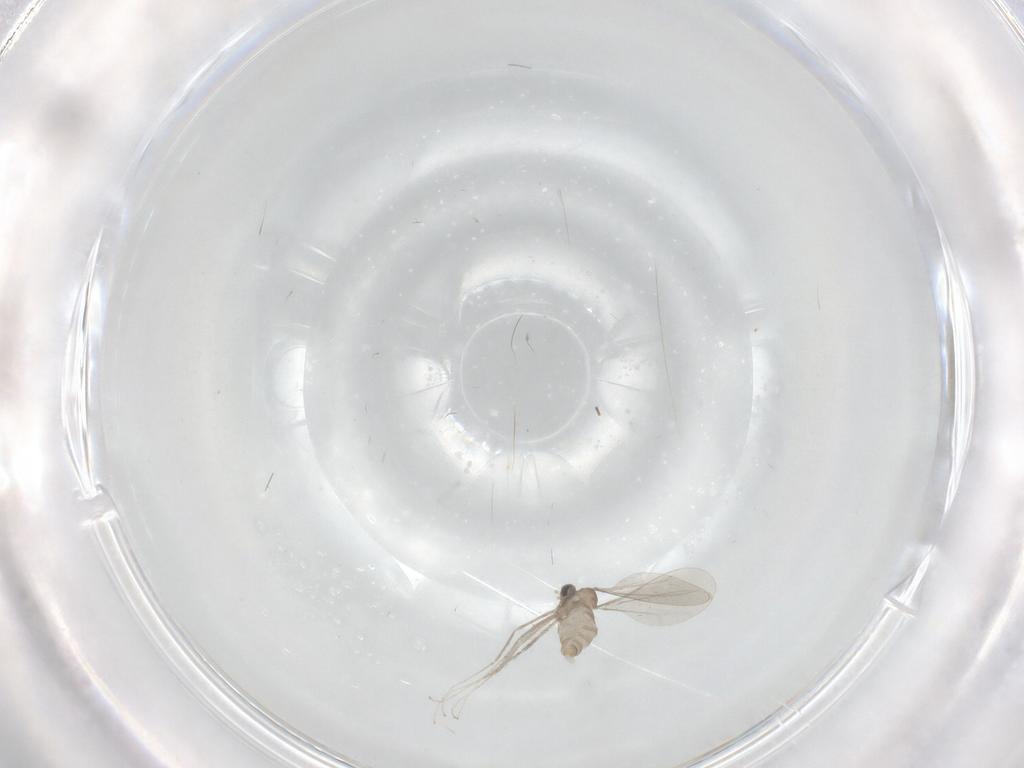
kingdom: Animalia
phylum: Arthropoda
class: Insecta
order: Diptera
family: Cecidomyiidae
